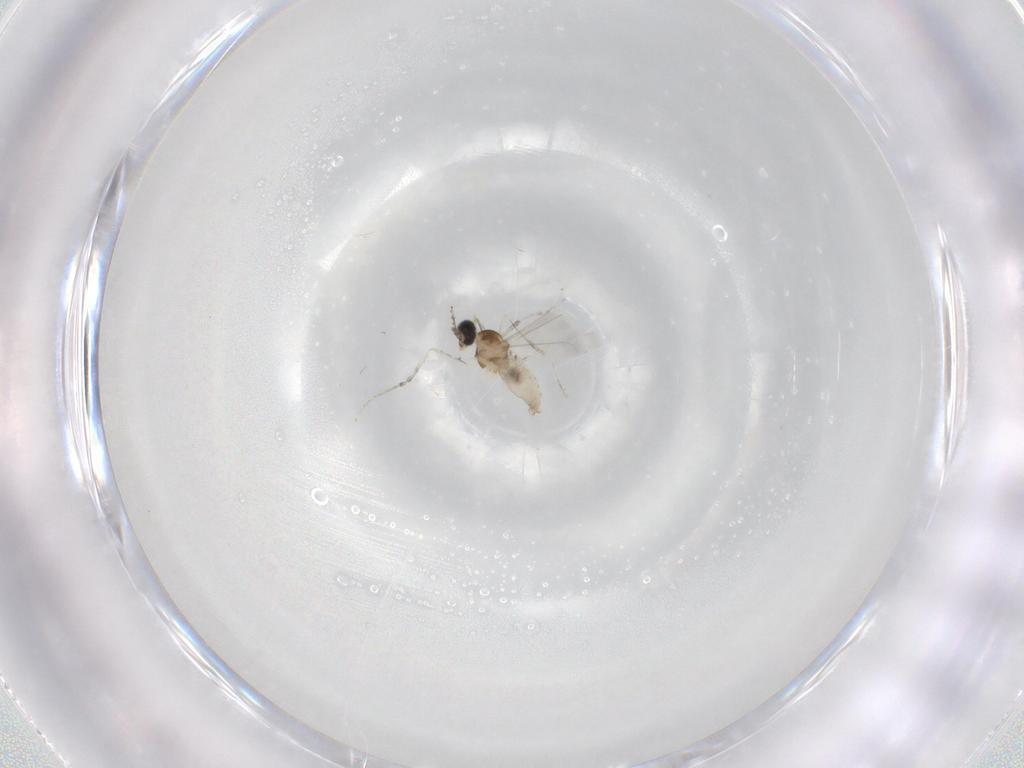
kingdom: Animalia
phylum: Arthropoda
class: Insecta
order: Diptera
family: Cecidomyiidae
